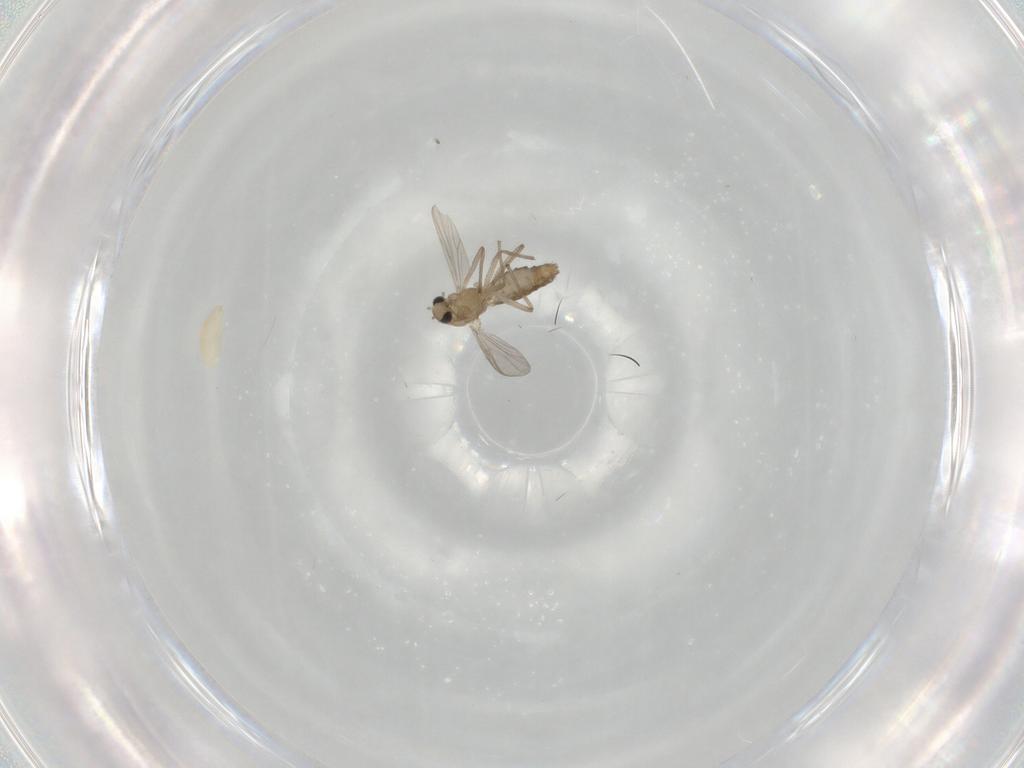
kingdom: Animalia
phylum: Arthropoda
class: Insecta
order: Diptera
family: Chironomidae
